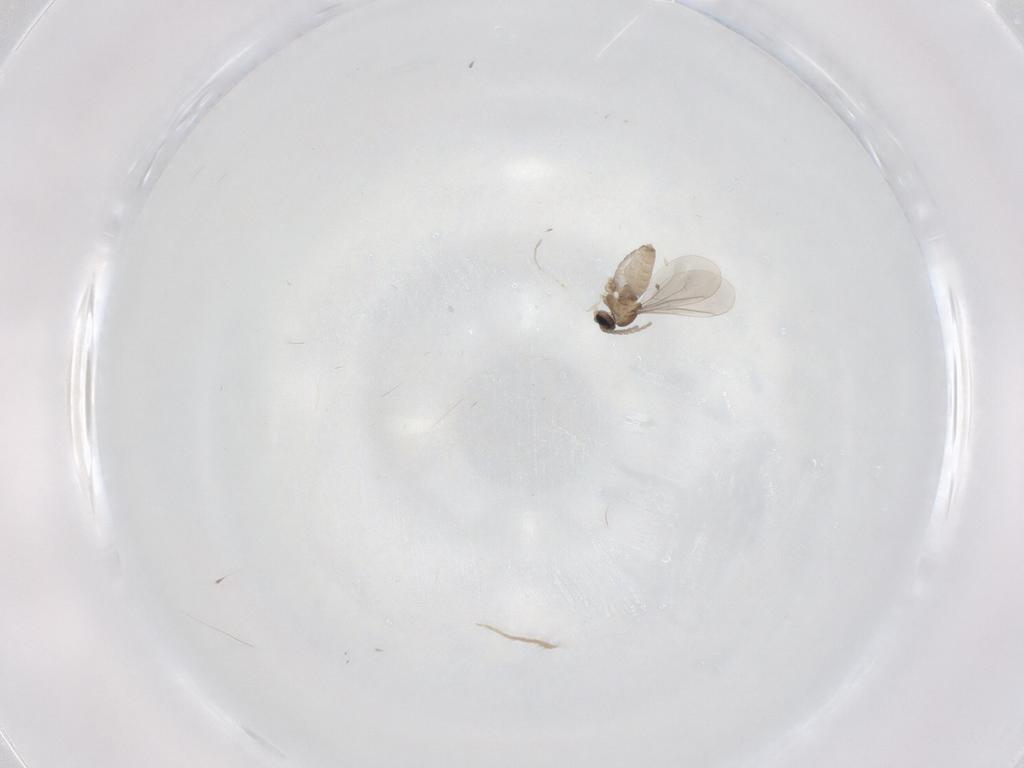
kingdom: Animalia
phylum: Arthropoda
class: Insecta
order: Diptera
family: Cecidomyiidae
